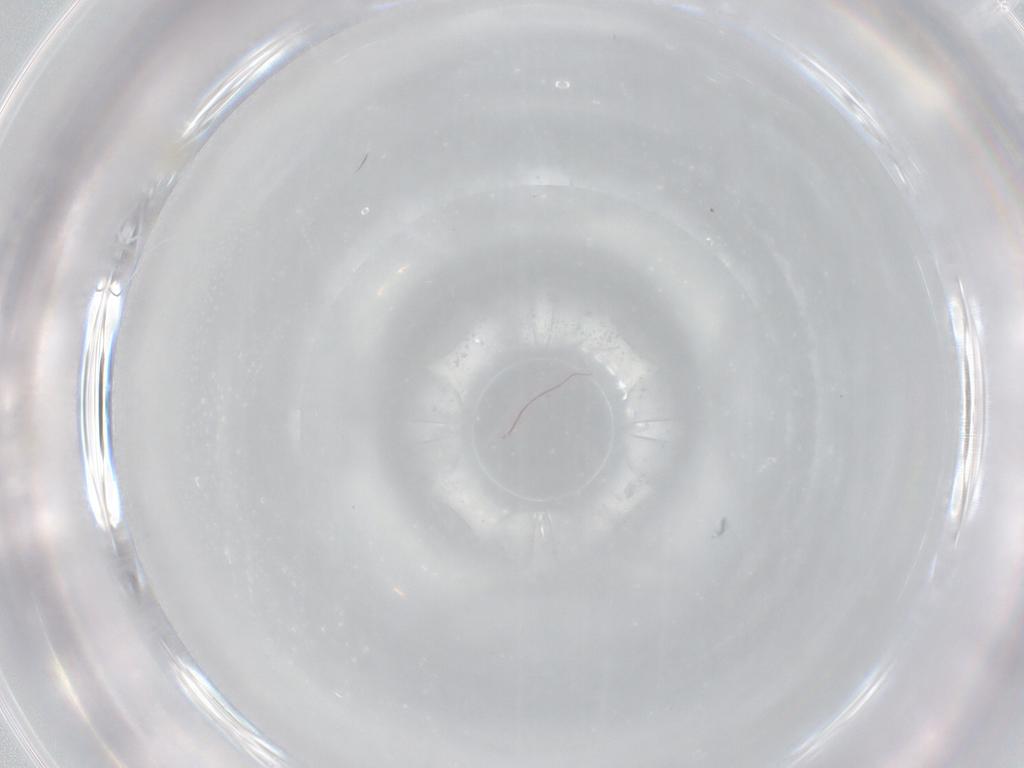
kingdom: Animalia
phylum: Arthropoda
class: Arachnida
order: Trombidiformes
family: Anystidae
